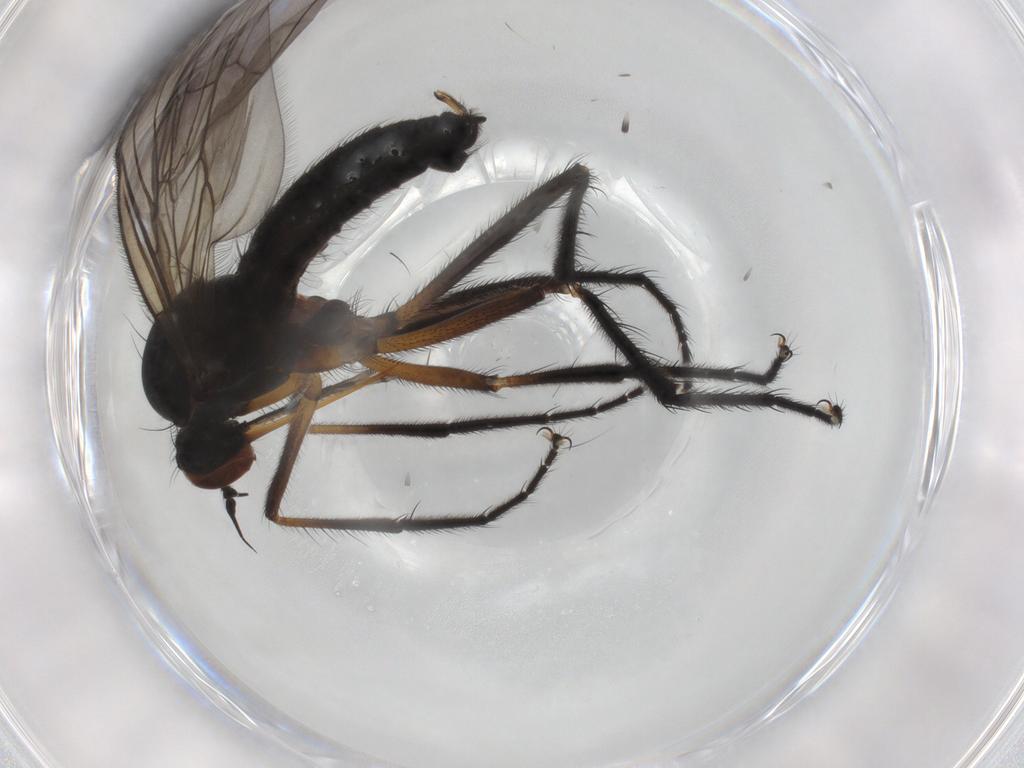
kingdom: Animalia
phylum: Arthropoda
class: Insecta
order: Diptera
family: Empididae
